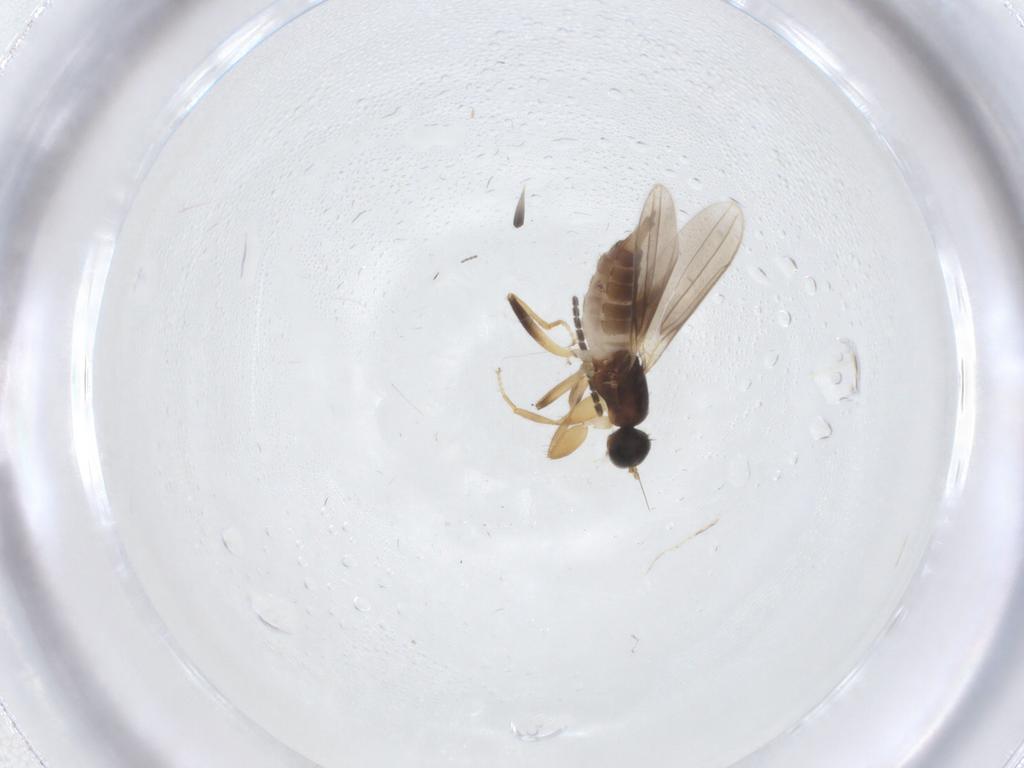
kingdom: Animalia
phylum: Arthropoda
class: Insecta
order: Diptera
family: Hybotidae
